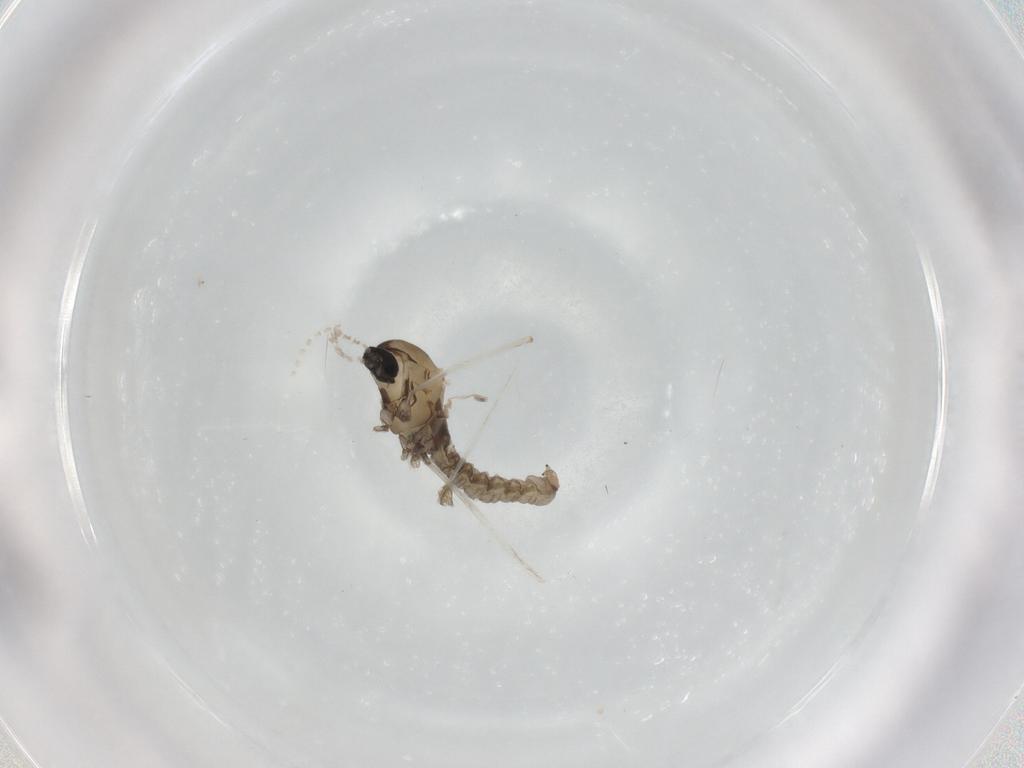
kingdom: Animalia
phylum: Arthropoda
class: Insecta
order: Diptera
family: Cecidomyiidae
